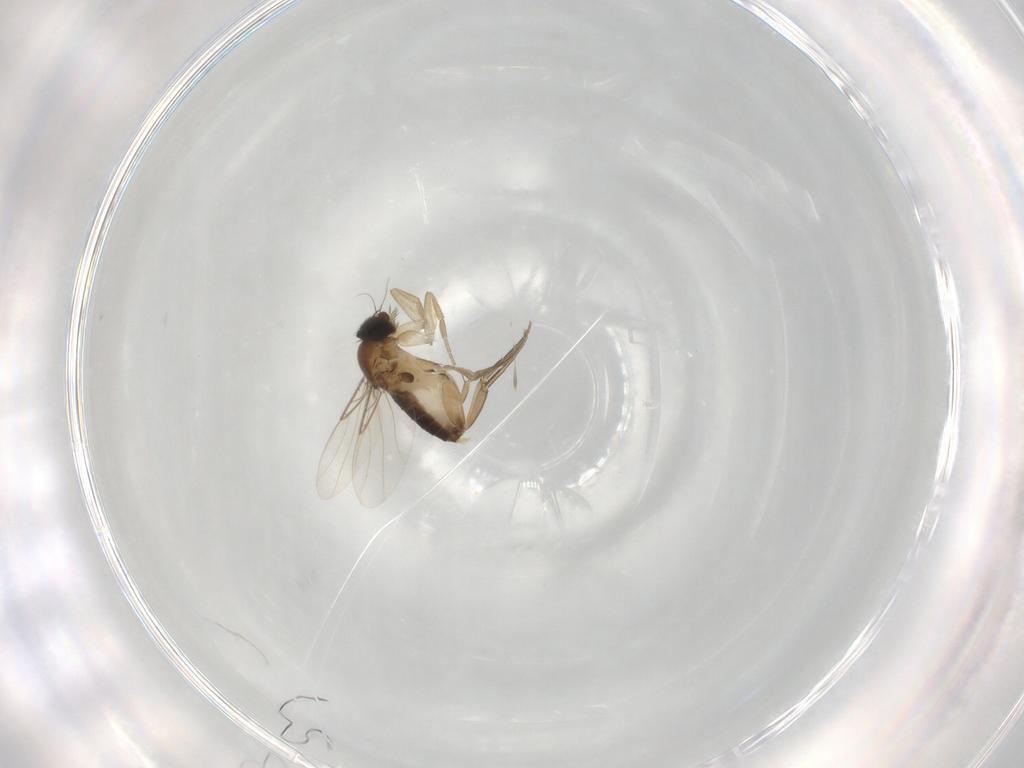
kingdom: Animalia
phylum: Arthropoda
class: Insecta
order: Diptera
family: Phoridae
